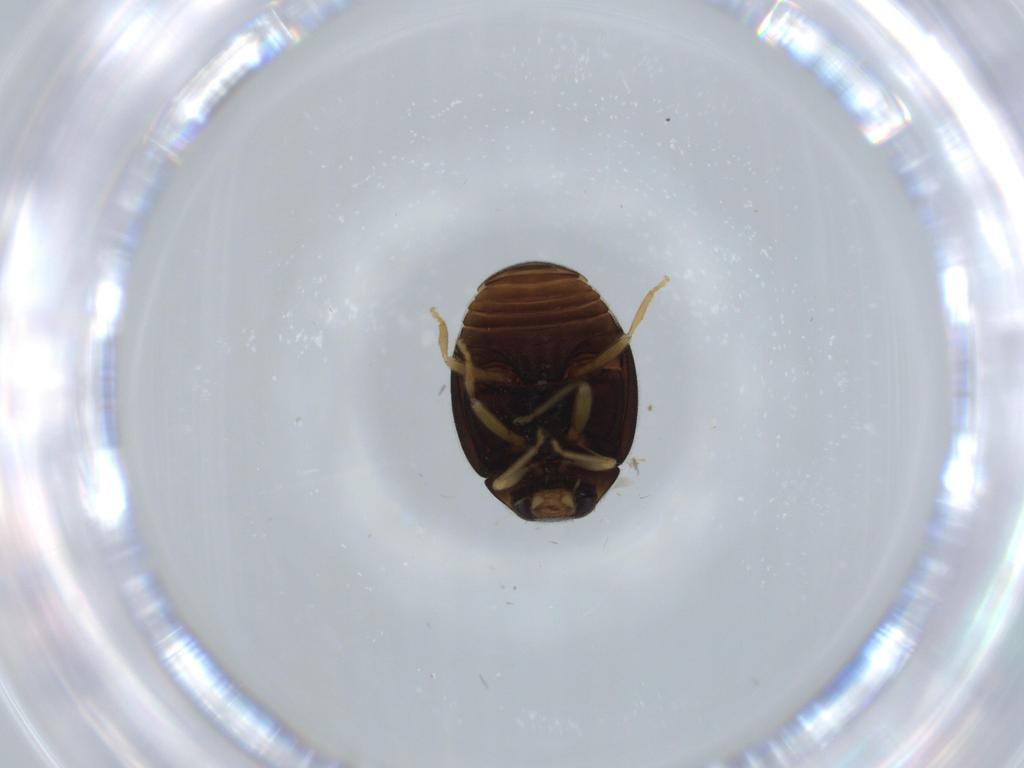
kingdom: Animalia
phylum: Arthropoda
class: Insecta
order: Coleoptera
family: Coccinellidae
